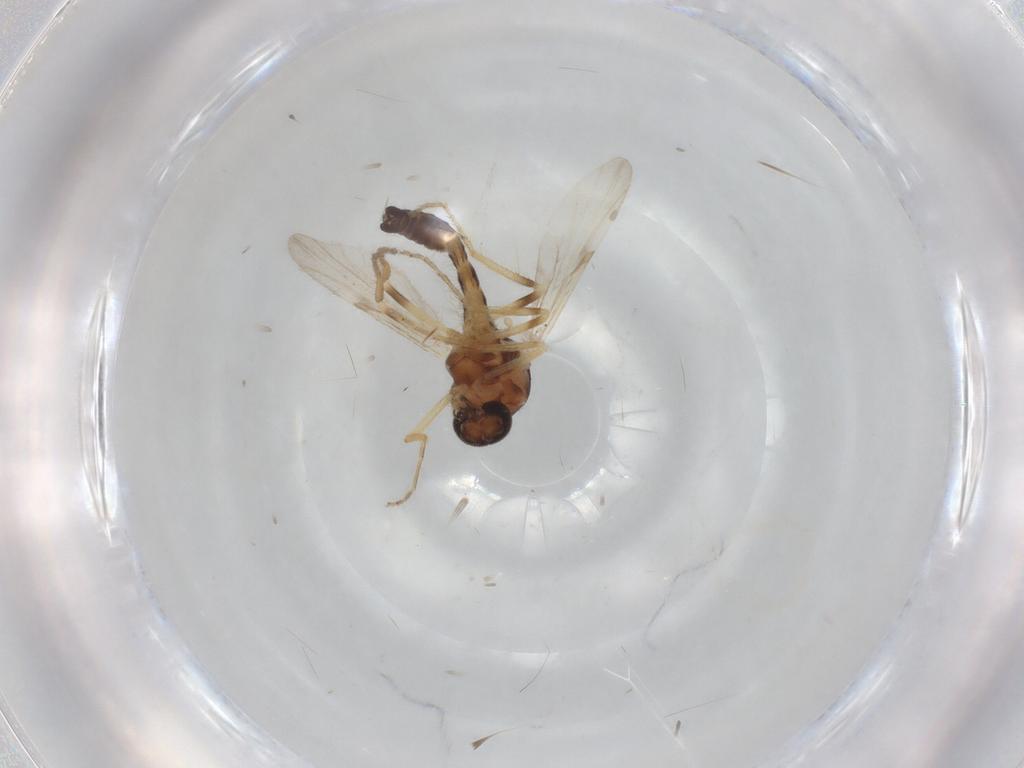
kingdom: Animalia
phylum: Arthropoda
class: Insecta
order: Diptera
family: Ceratopogonidae
